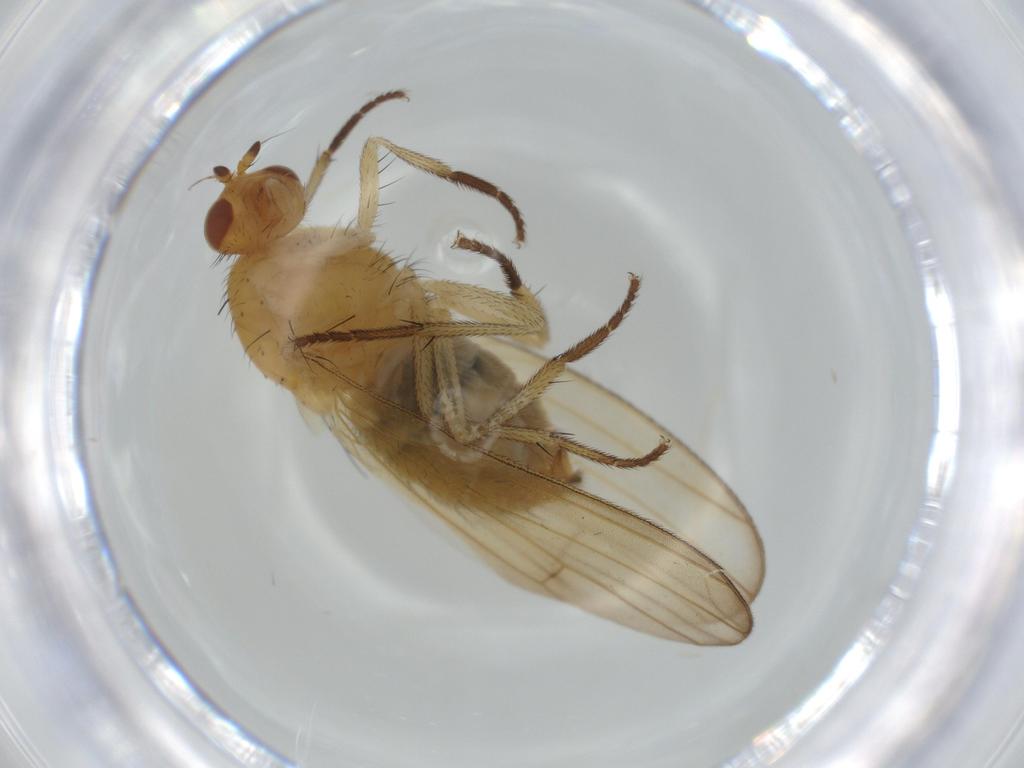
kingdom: Animalia
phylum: Arthropoda
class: Insecta
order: Diptera
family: Cecidomyiidae
